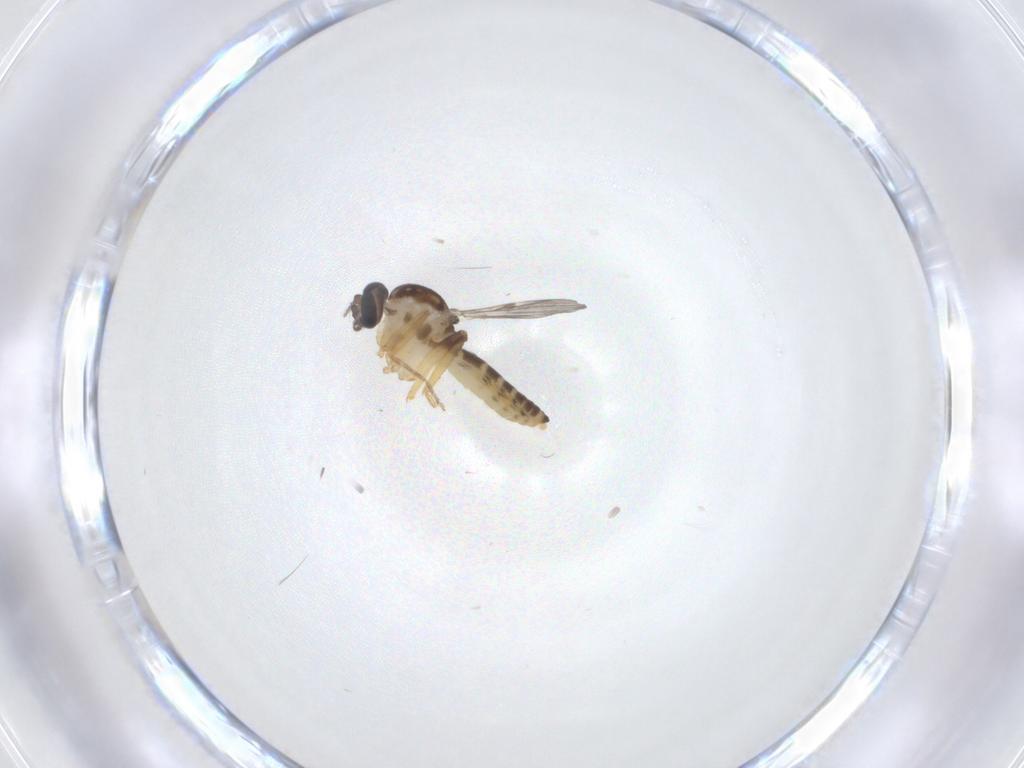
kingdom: Animalia
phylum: Arthropoda
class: Insecta
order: Diptera
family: Ceratopogonidae
